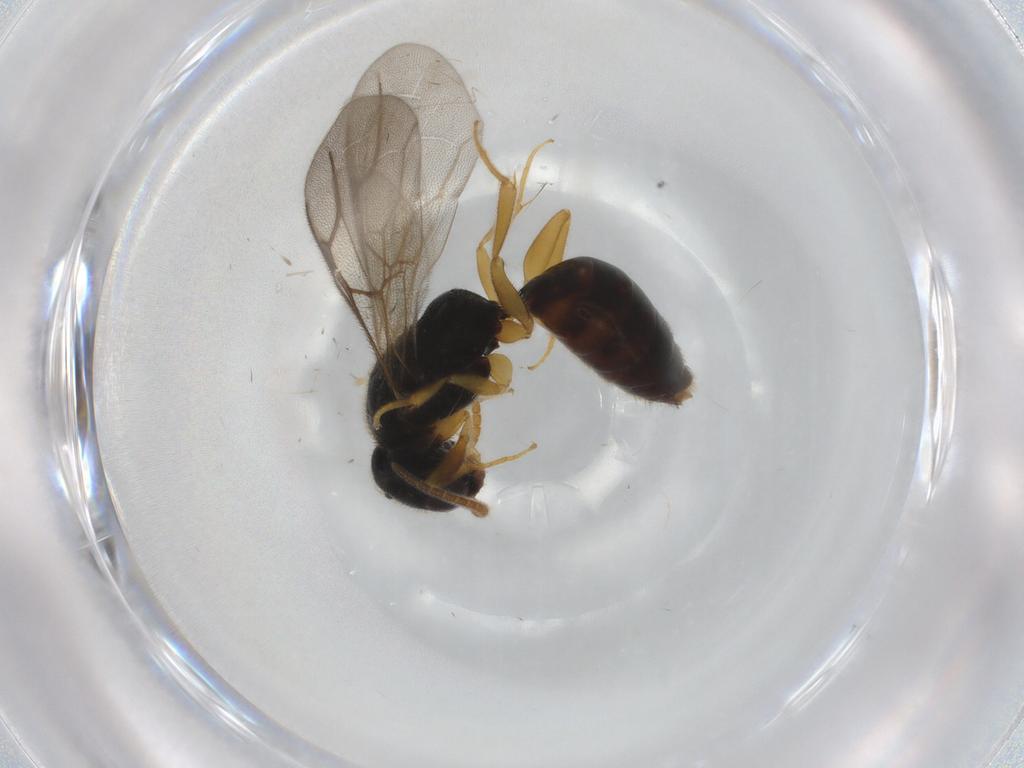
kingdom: Animalia
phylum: Arthropoda
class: Insecta
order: Hymenoptera
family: Bethylidae
